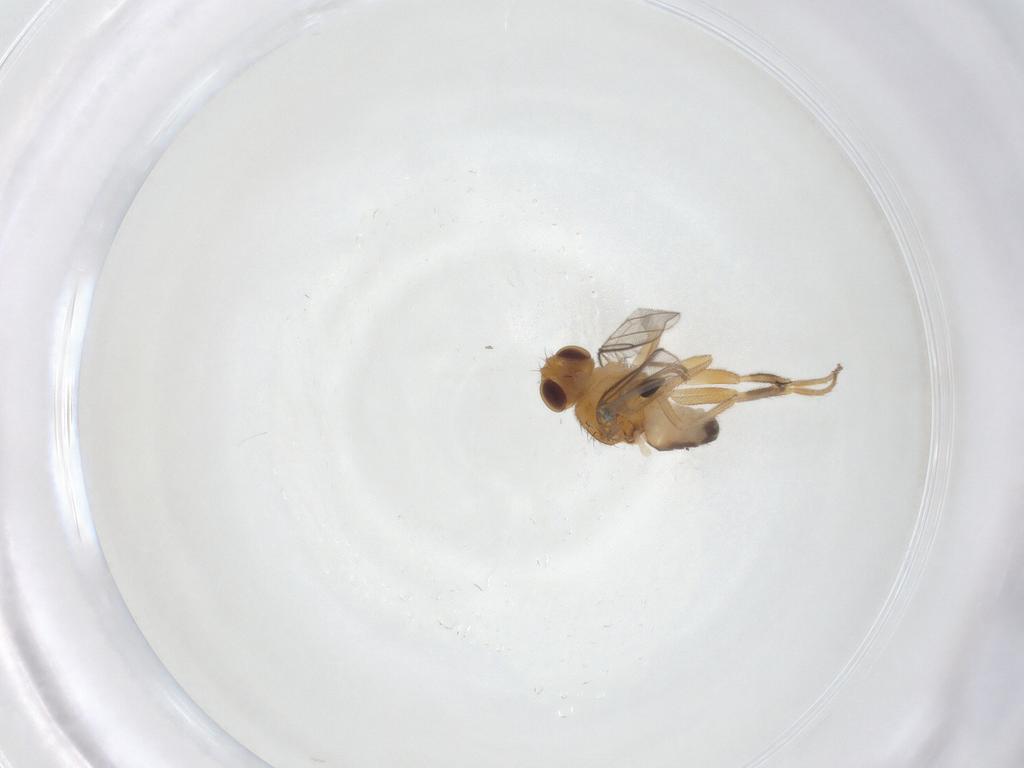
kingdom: Animalia
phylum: Arthropoda
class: Insecta
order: Diptera
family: Chloropidae
